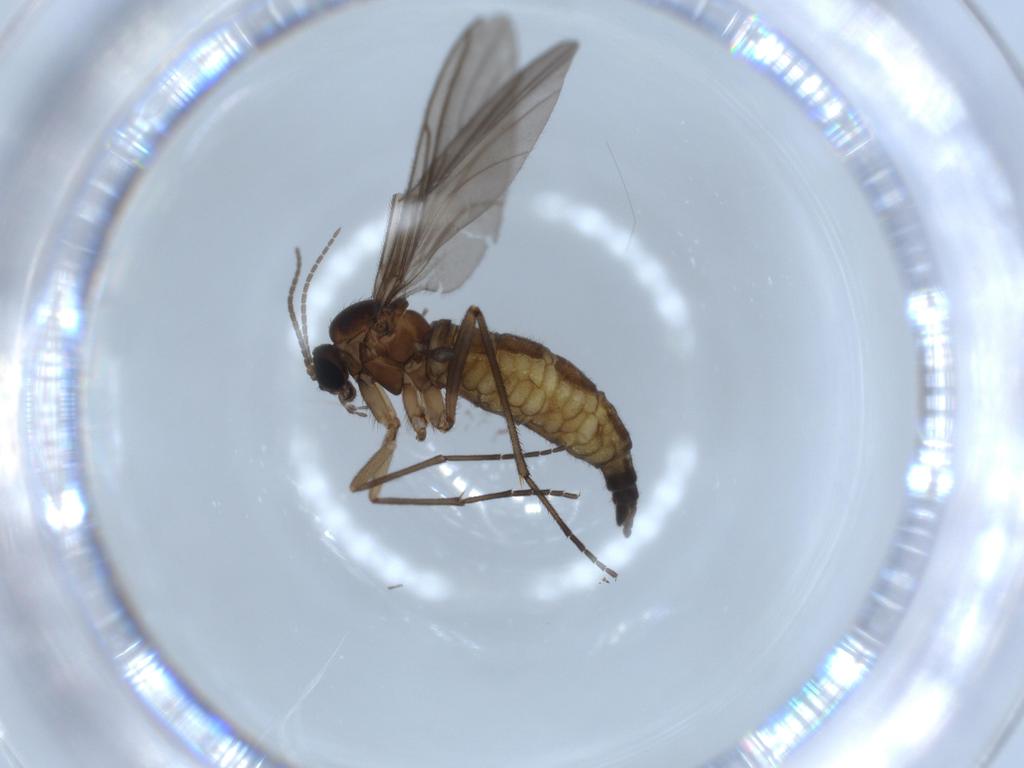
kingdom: Animalia
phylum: Arthropoda
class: Insecta
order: Diptera
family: Sciaridae
